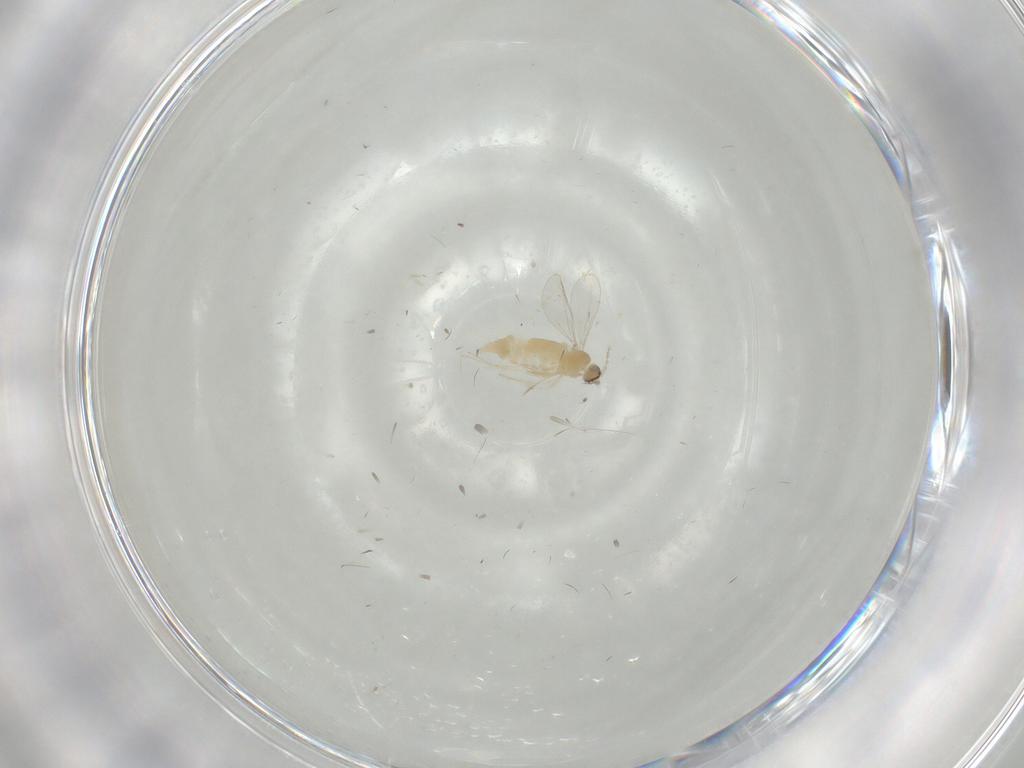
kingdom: Animalia
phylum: Arthropoda
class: Insecta
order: Diptera
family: Cecidomyiidae
